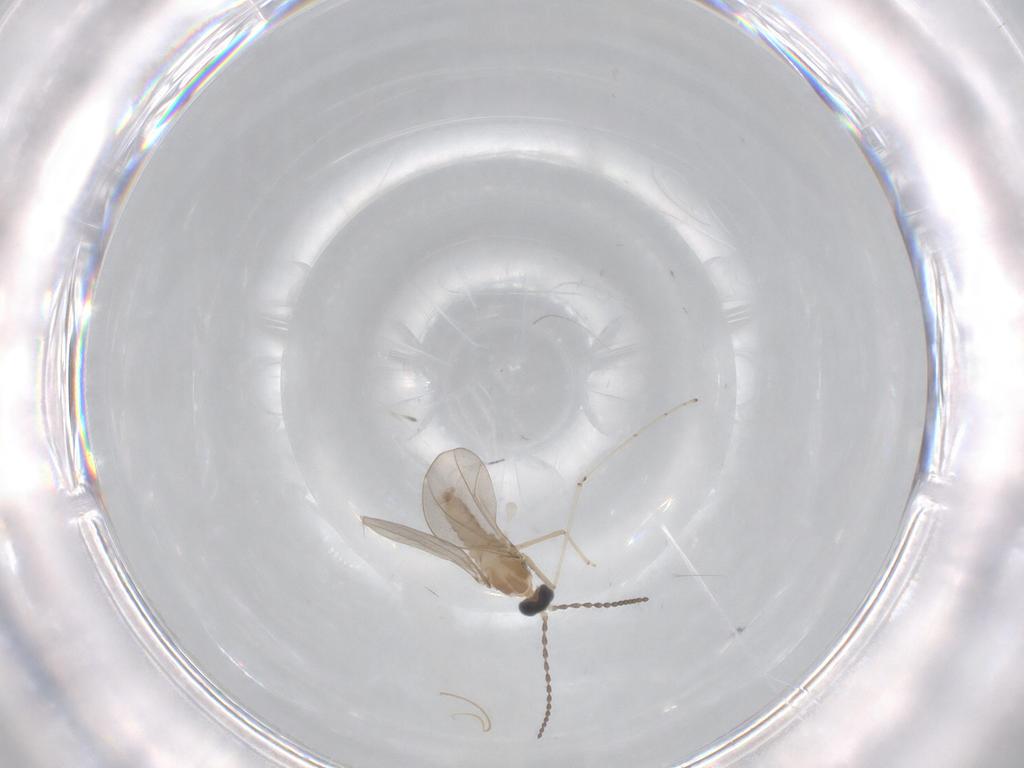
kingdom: Animalia
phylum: Arthropoda
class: Insecta
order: Diptera
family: Cecidomyiidae
